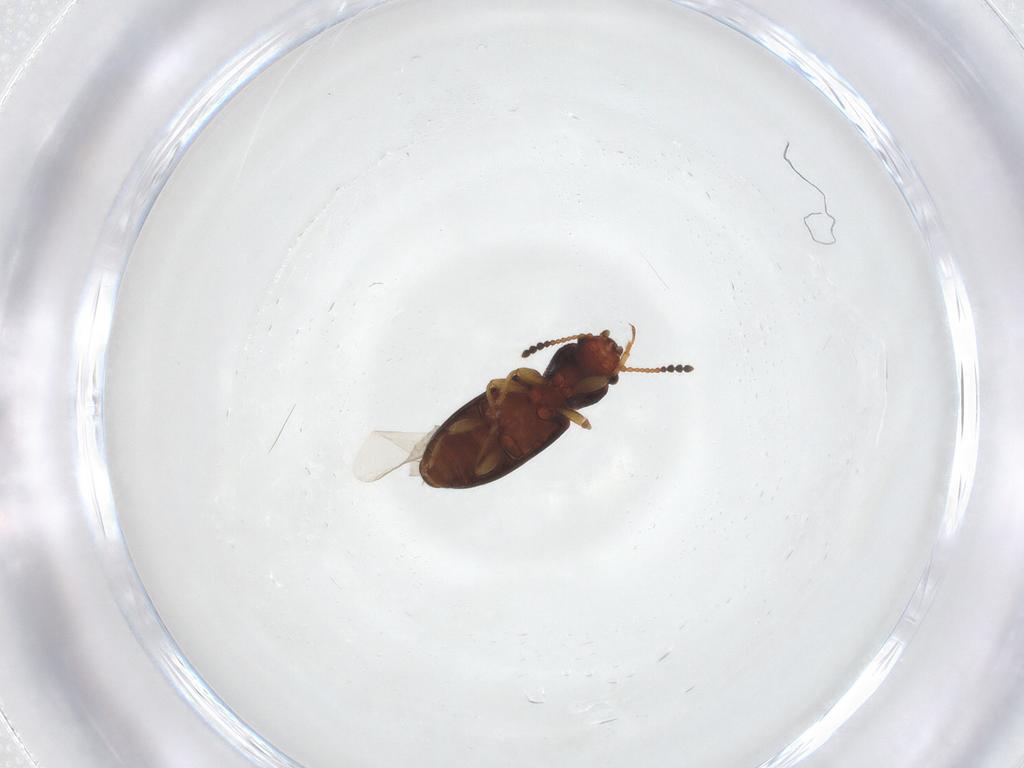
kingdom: Animalia
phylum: Arthropoda
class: Insecta
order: Coleoptera
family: Salpingidae
